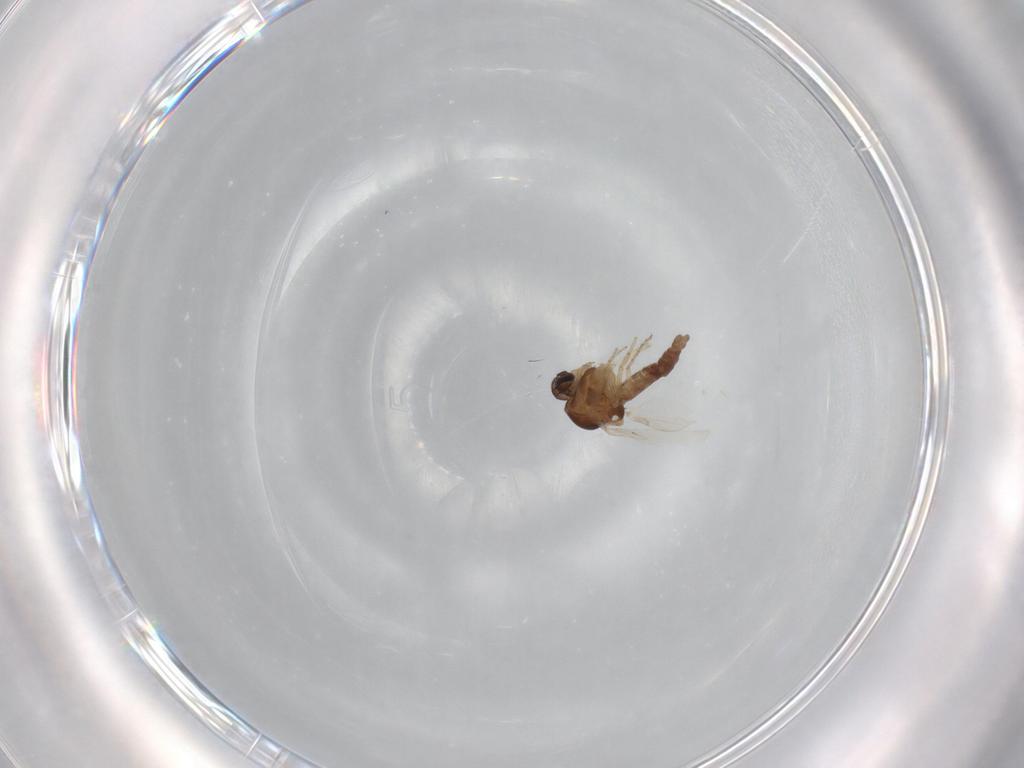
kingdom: Animalia
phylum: Arthropoda
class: Insecta
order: Diptera
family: Ceratopogonidae
